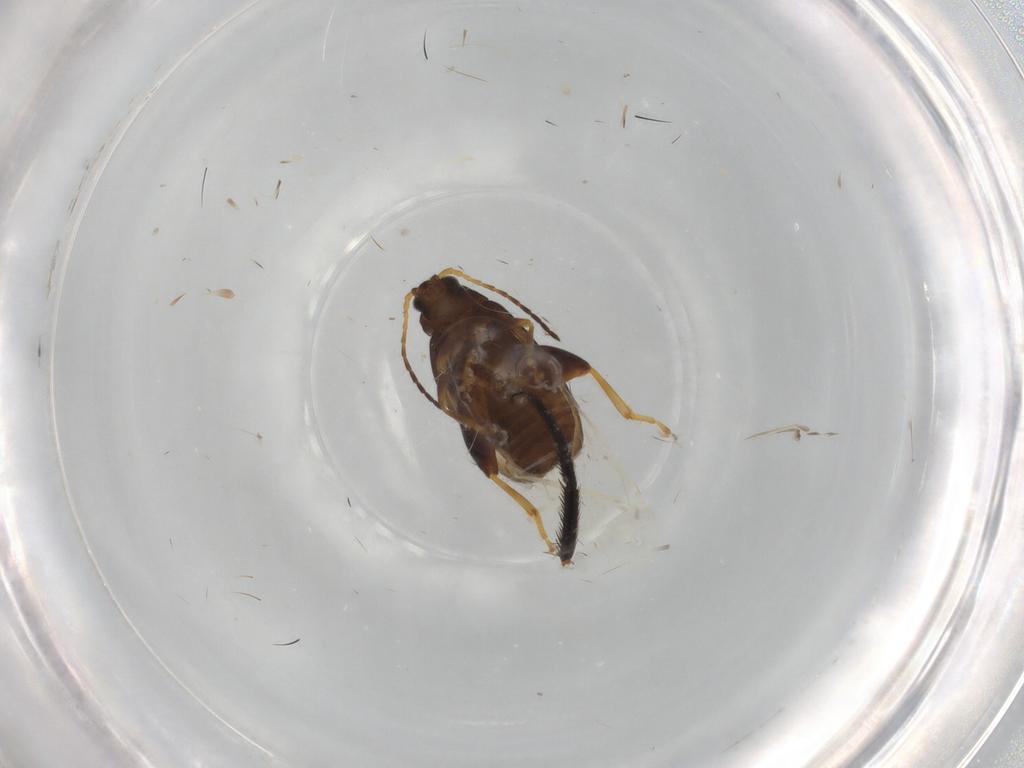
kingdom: Animalia
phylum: Arthropoda
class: Insecta
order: Coleoptera
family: Chrysomelidae
